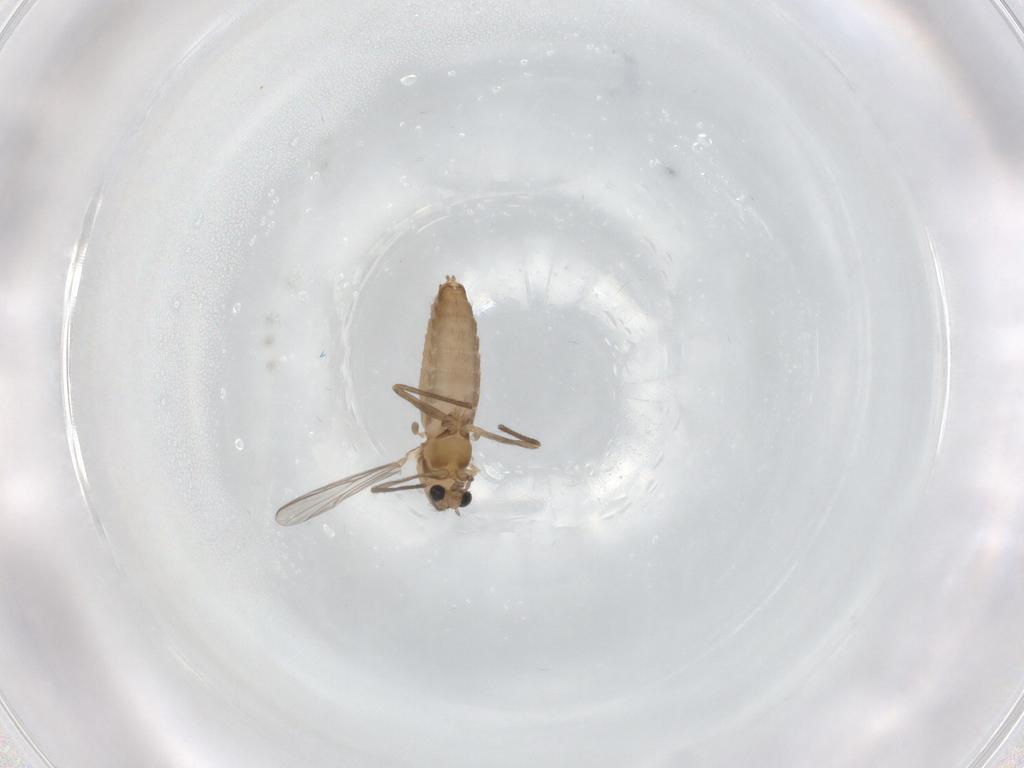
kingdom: Animalia
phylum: Arthropoda
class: Insecta
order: Diptera
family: Chironomidae
